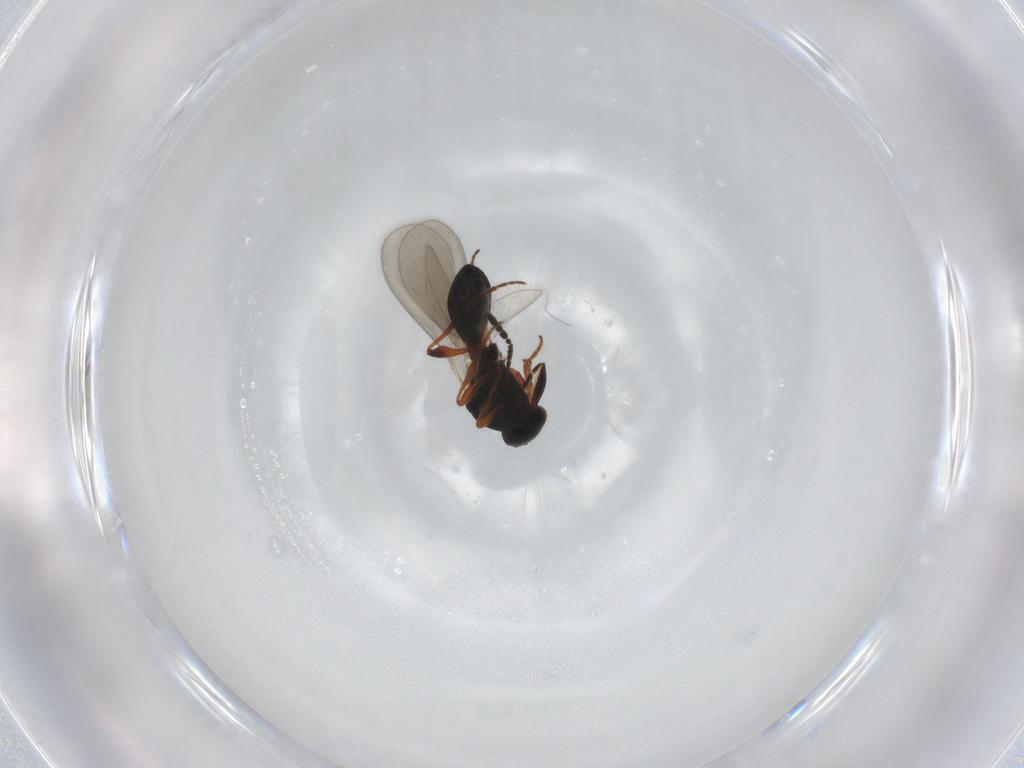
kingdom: Animalia
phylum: Arthropoda
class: Insecta
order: Hymenoptera
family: Platygastridae
